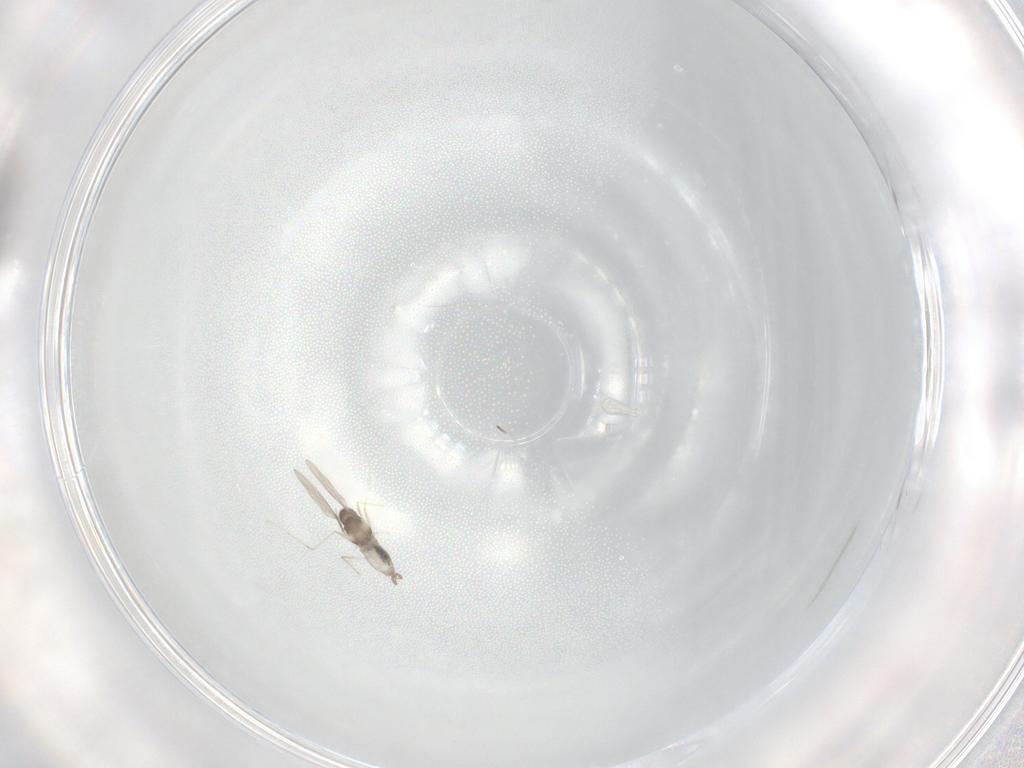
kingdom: Animalia
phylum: Arthropoda
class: Insecta
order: Diptera
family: Cecidomyiidae
